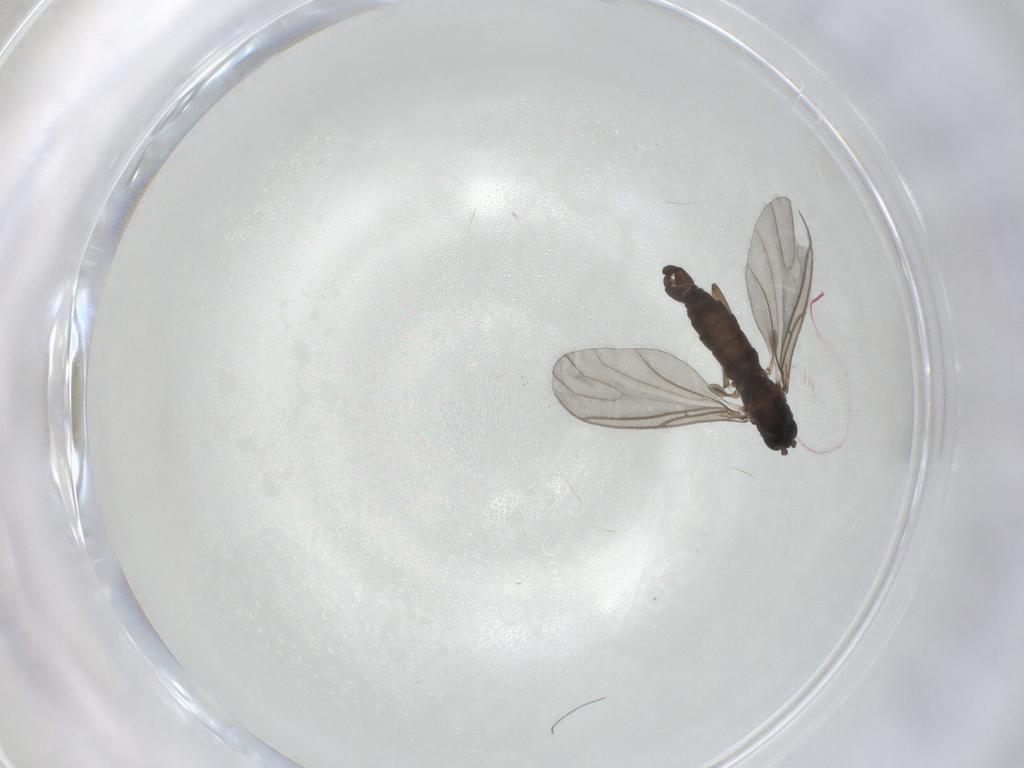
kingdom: Animalia
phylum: Arthropoda
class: Insecta
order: Diptera
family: Sciaridae
